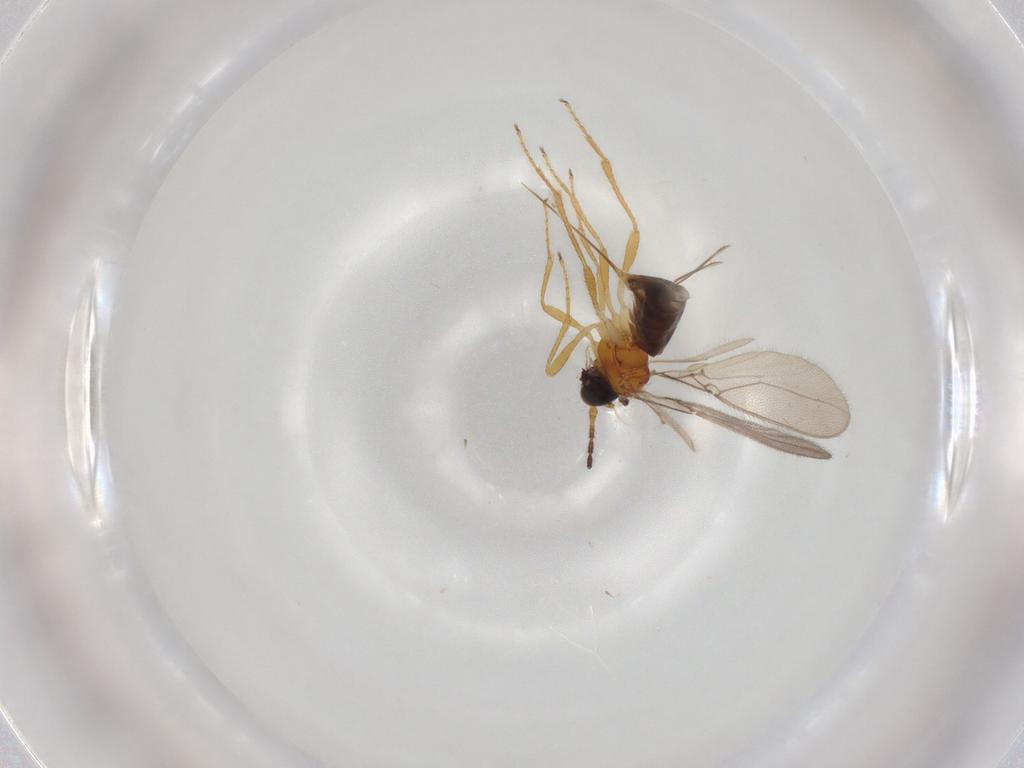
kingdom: Animalia
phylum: Arthropoda
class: Insecta
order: Hymenoptera
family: Braconidae
